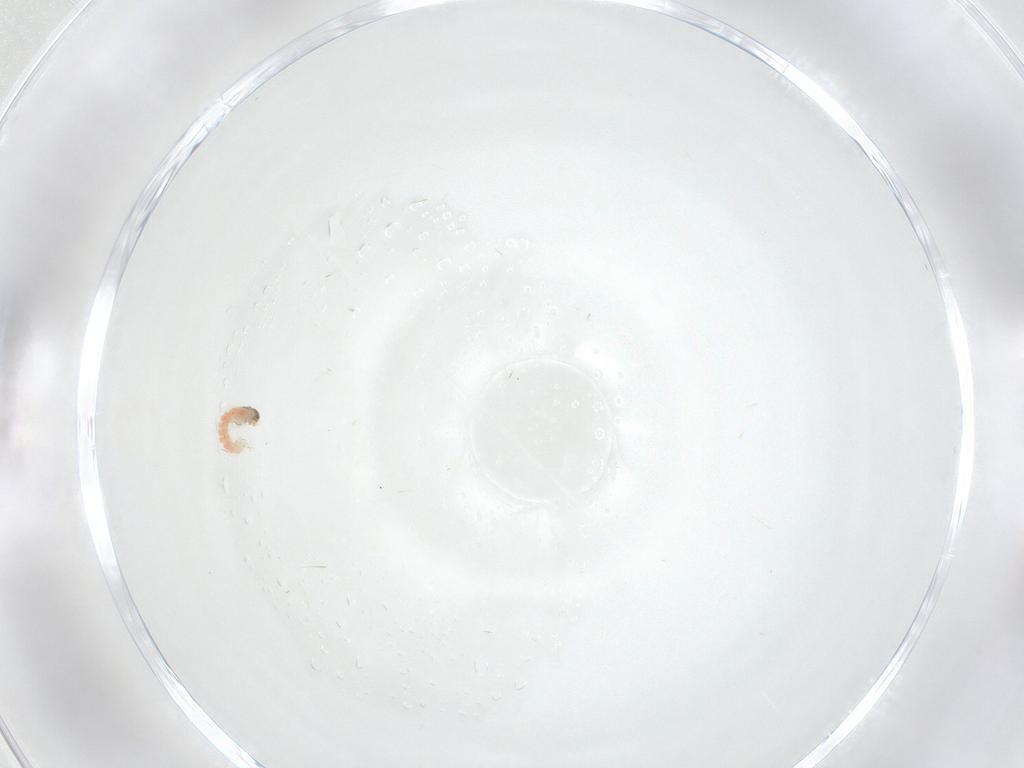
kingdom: Animalia
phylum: Arthropoda
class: Insecta
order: Lepidoptera
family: Cosmopterigidae
